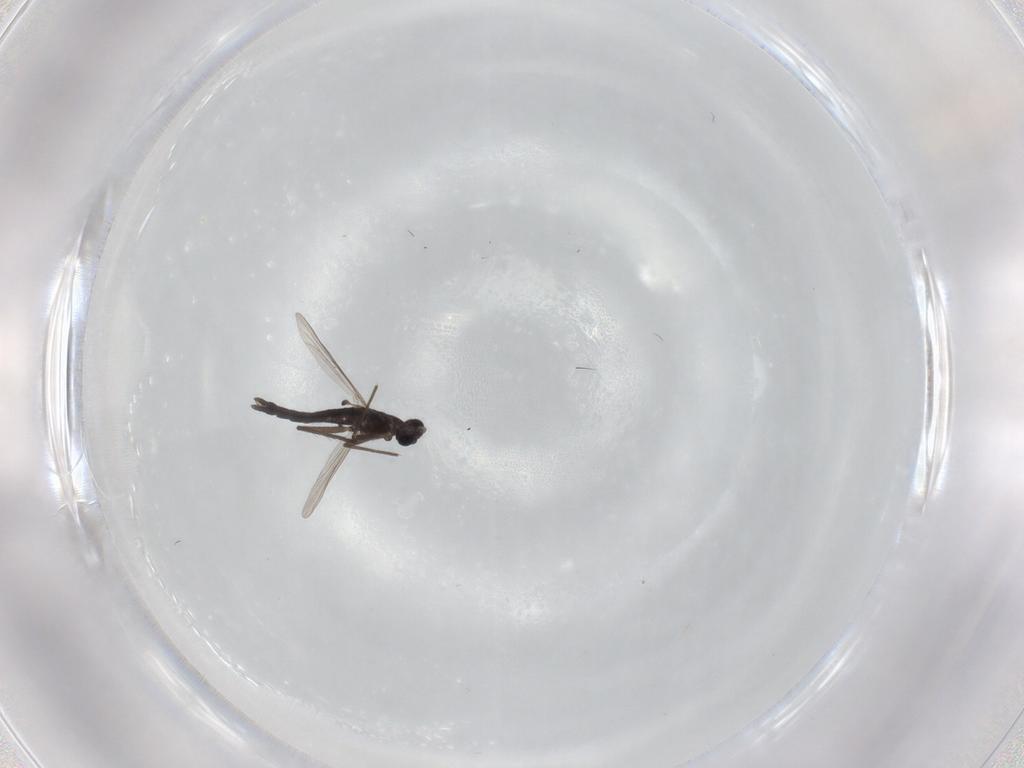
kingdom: Animalia
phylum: Arthropoda
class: Insecta
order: Diptera
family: Chironomidae
